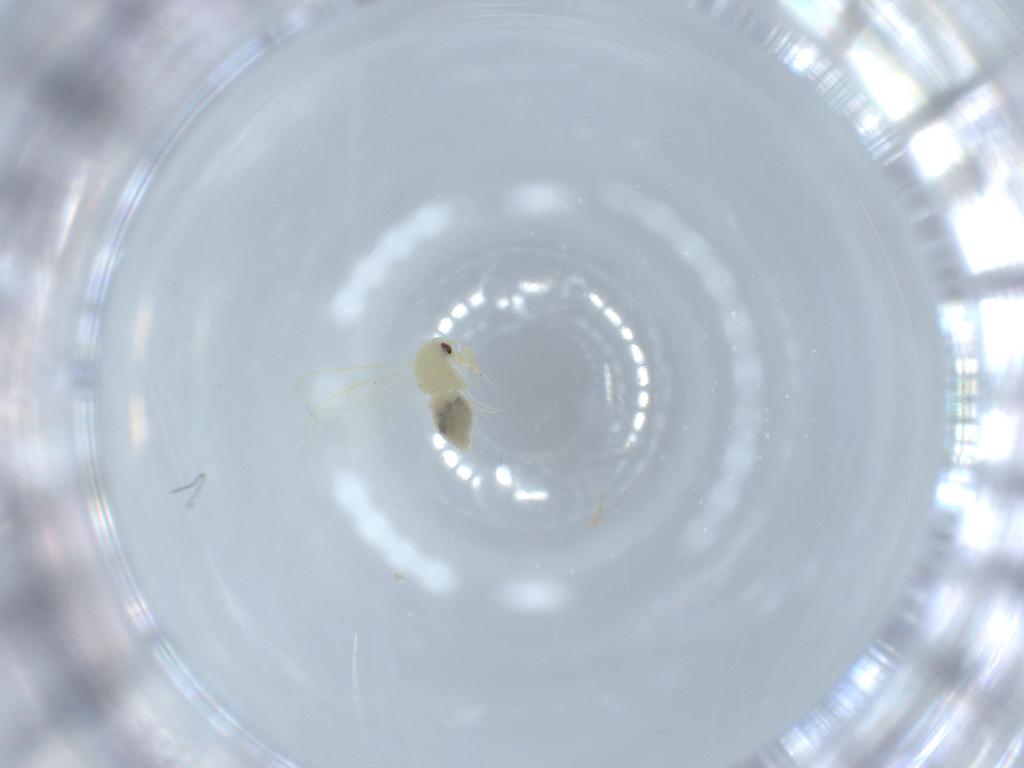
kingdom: Animalia
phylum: Arthropoda
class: Insecta
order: Hemiptera
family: Aleyrodidae
